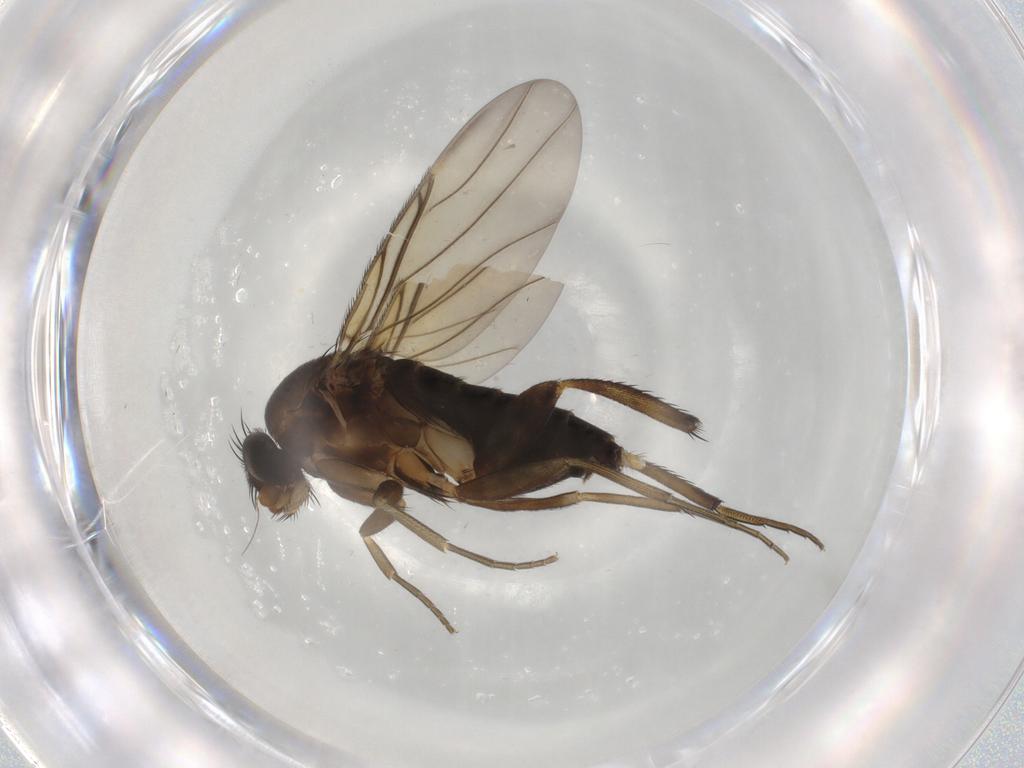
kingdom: Animalia
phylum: Arthropoda
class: Insecta
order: Diptera
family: Phoridae
